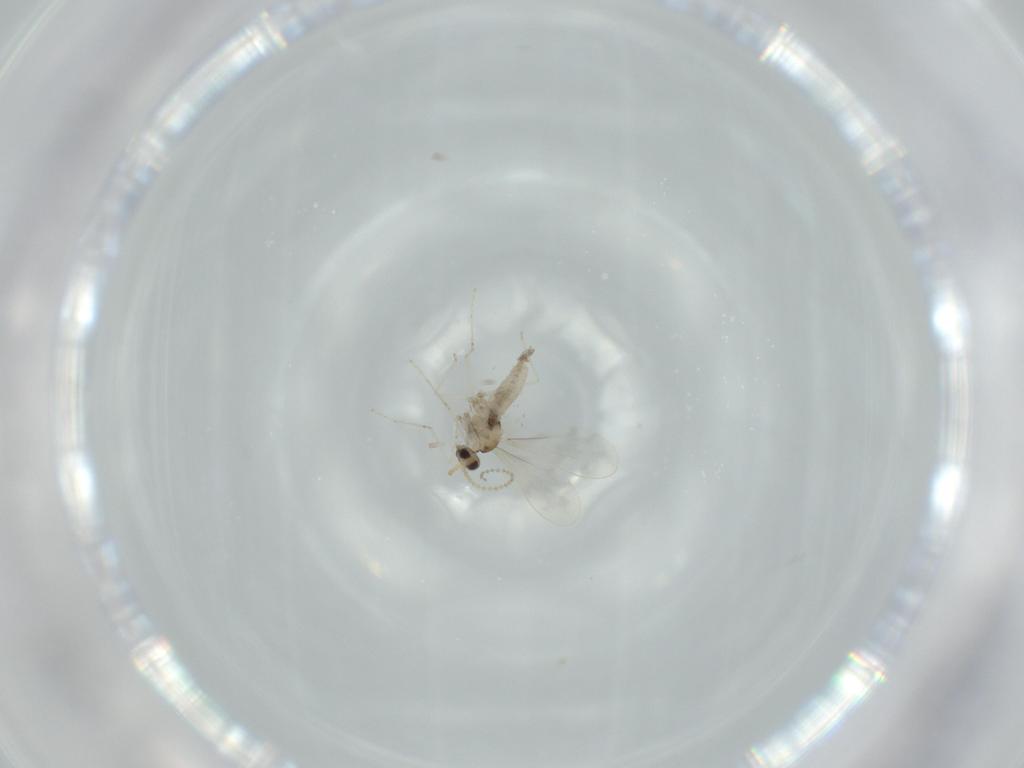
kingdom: Animalia
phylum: Arthropoda
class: Insecta
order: Diptera
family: Cecidomyiidae
